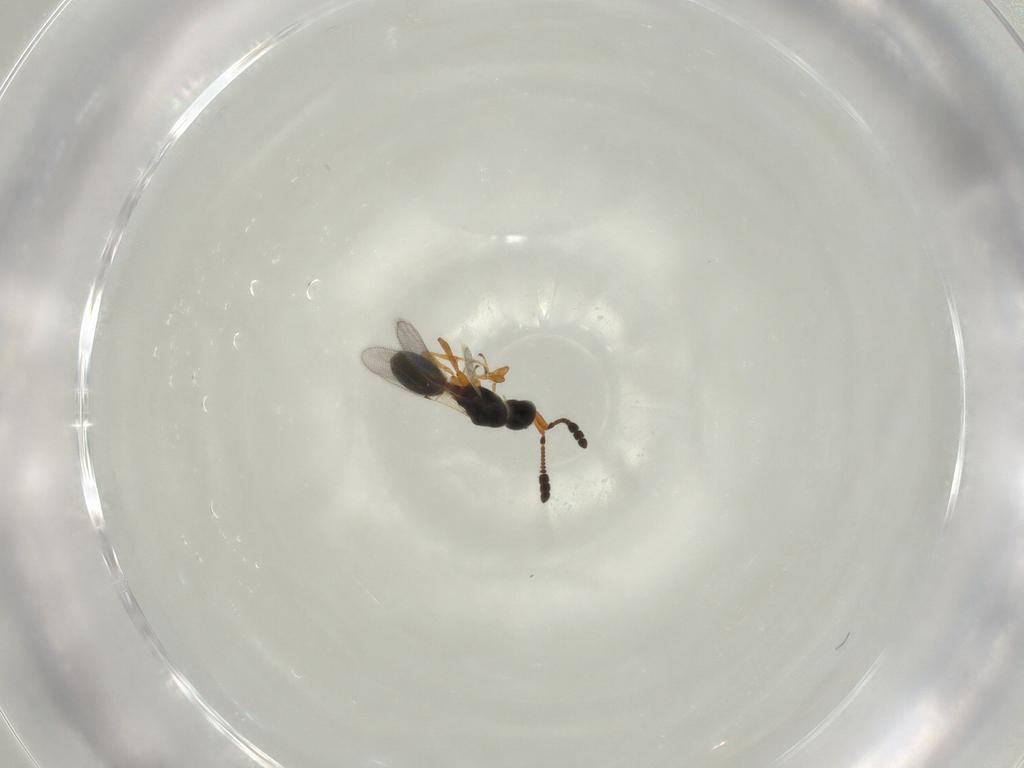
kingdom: Animalia
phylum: Arthropoda
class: Insecta
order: Hymenoptera
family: Diapriidae
